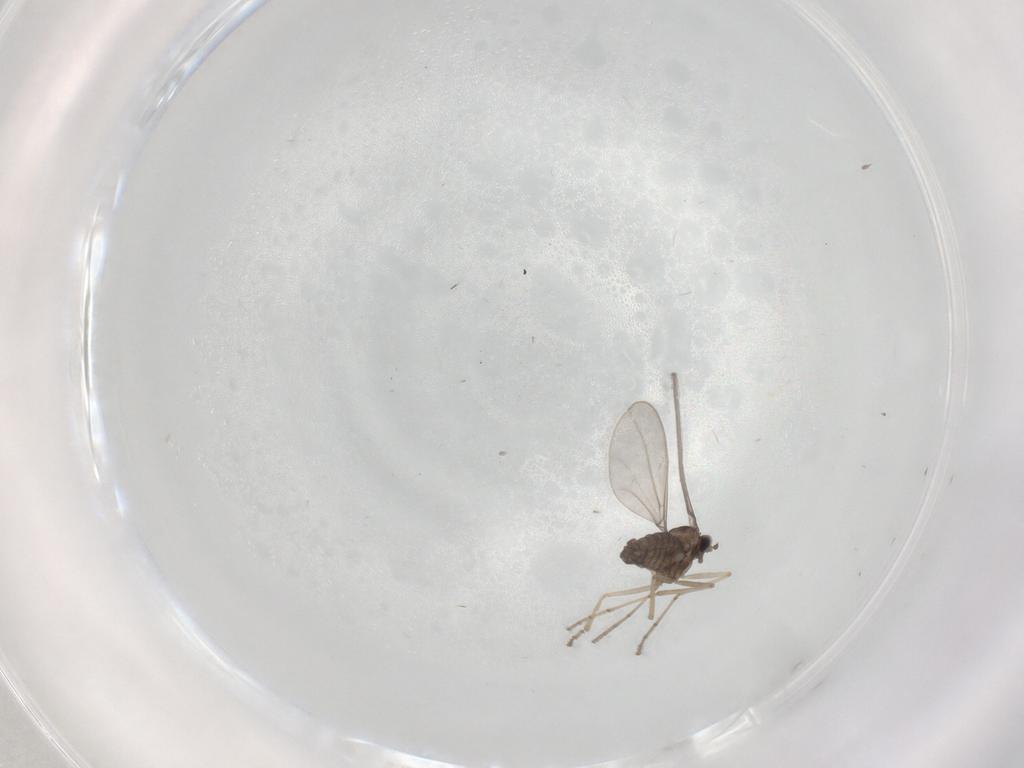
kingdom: Animalia
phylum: Arthropoda
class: Insecta
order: Diptera
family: Cecidomyiidae
